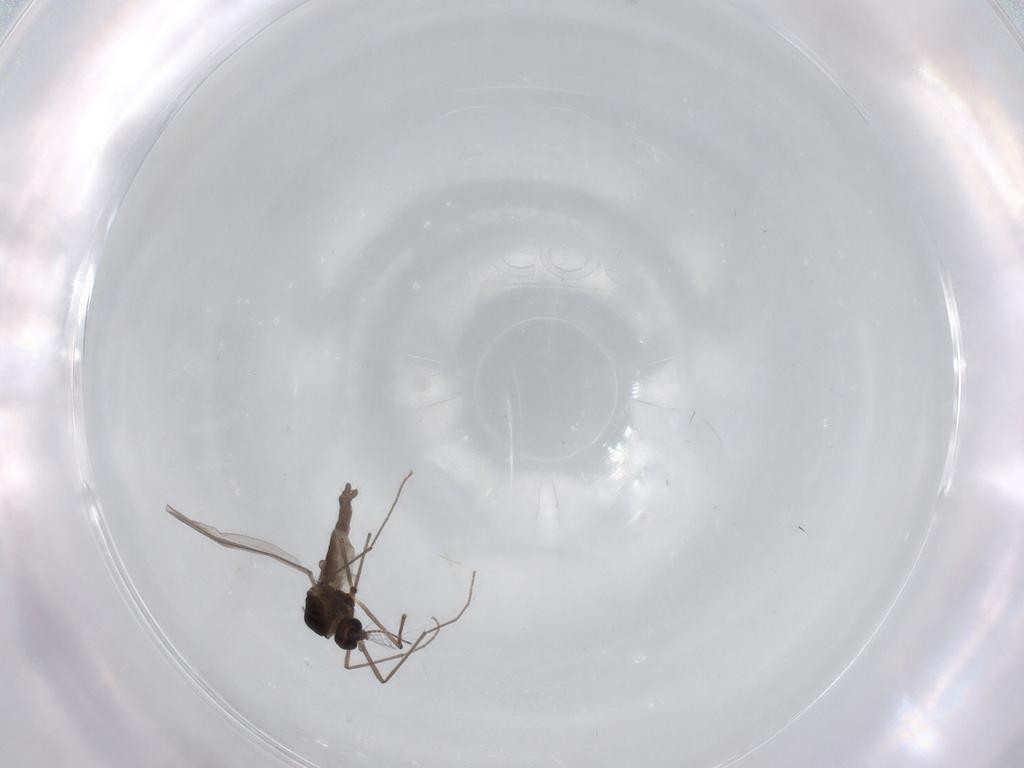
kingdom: Animalia
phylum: Arthropoda
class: Insecta
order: Diptera
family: Chironomidae
